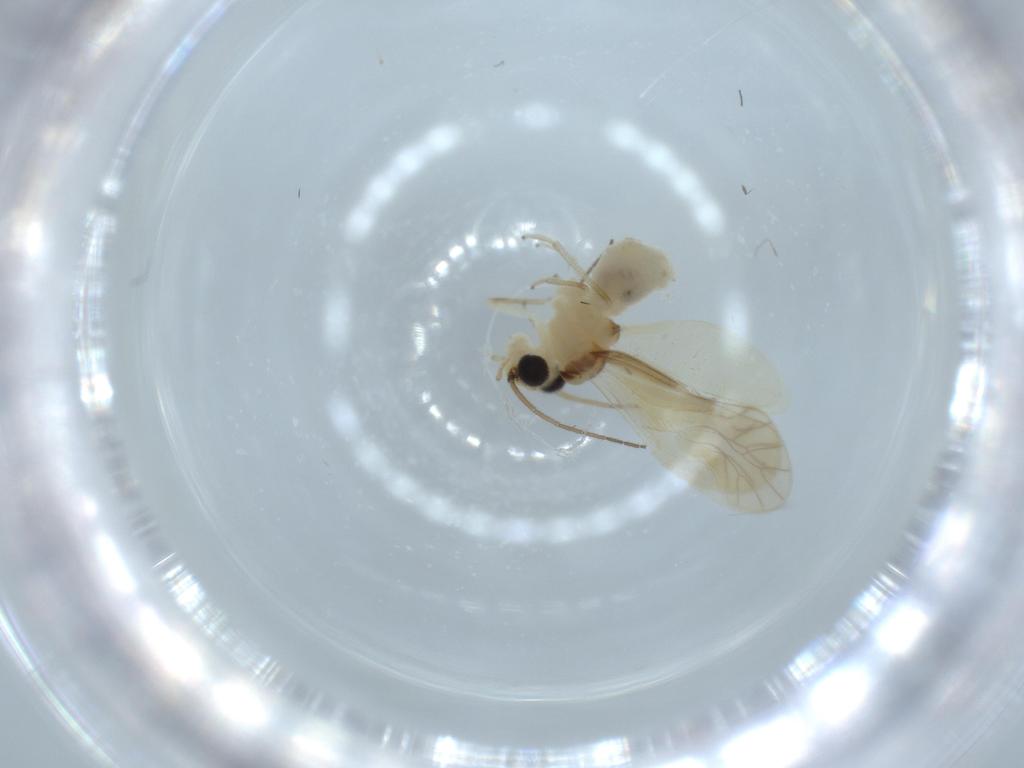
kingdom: Animalia
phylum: Arthropoda
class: Insecta
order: Psocodea
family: Caeciliusidae
